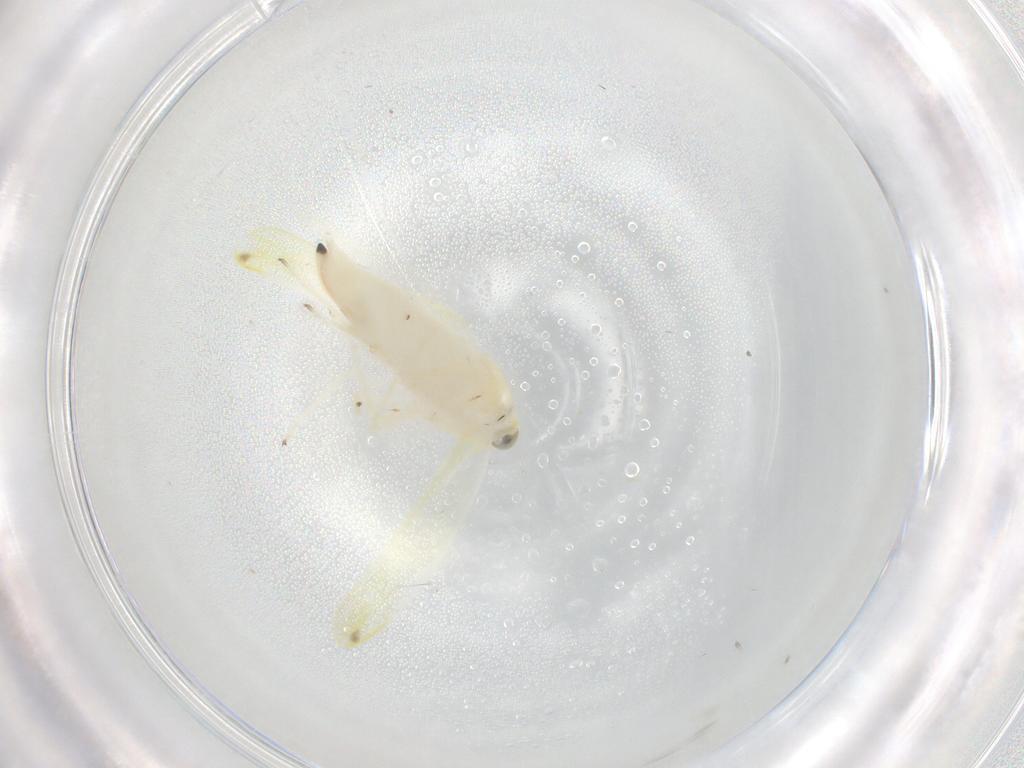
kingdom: Animalia
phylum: Arthropoda
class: Insecta
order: Hemiptera
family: Cicadellidae
